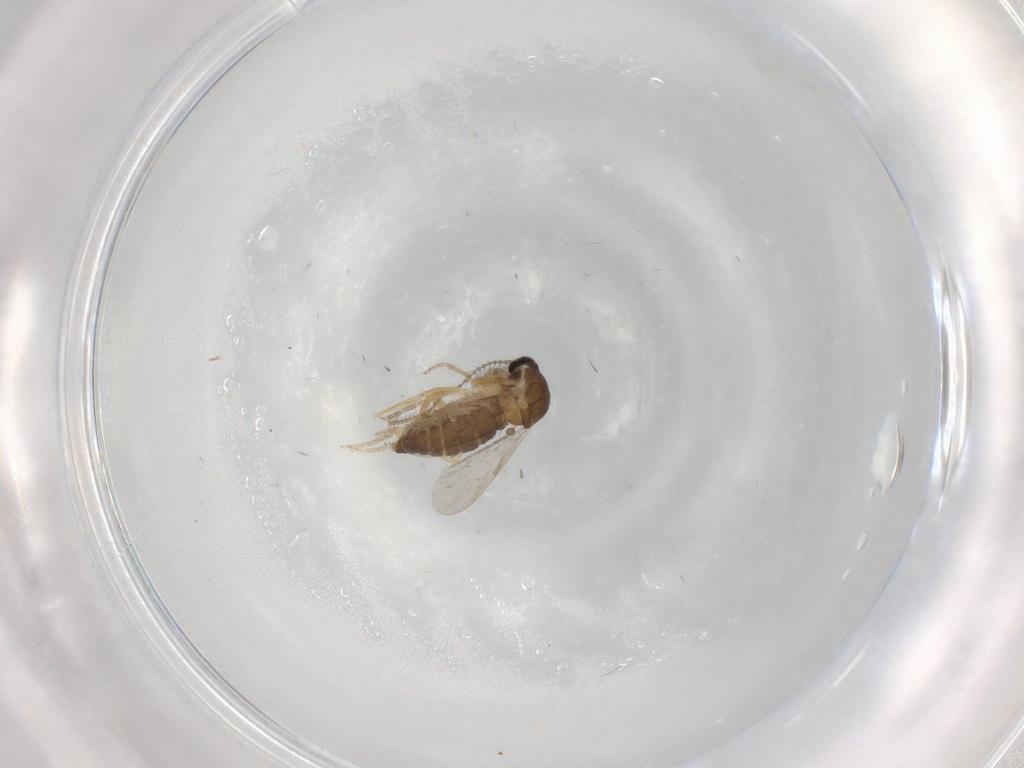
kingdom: Animalia
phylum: Arthropoda
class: Insecta
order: Diptera
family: Ceratopogonidae
